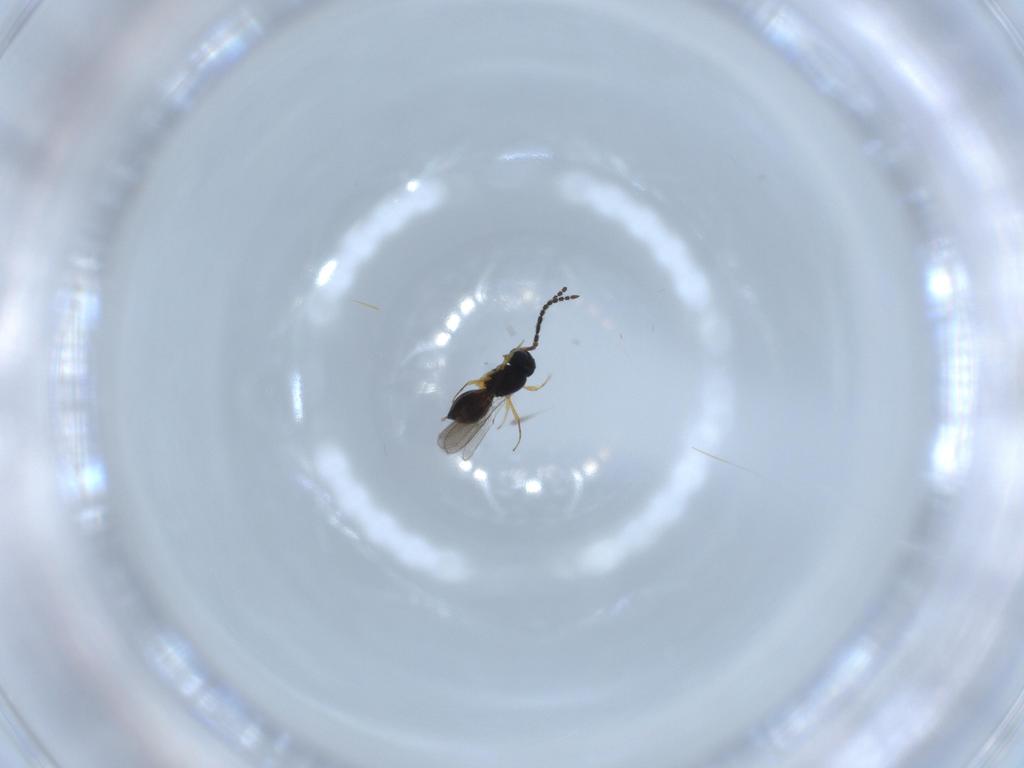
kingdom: Animalia
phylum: Arthropoda
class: Insecta
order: Hymenoptera
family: Scelionidae
